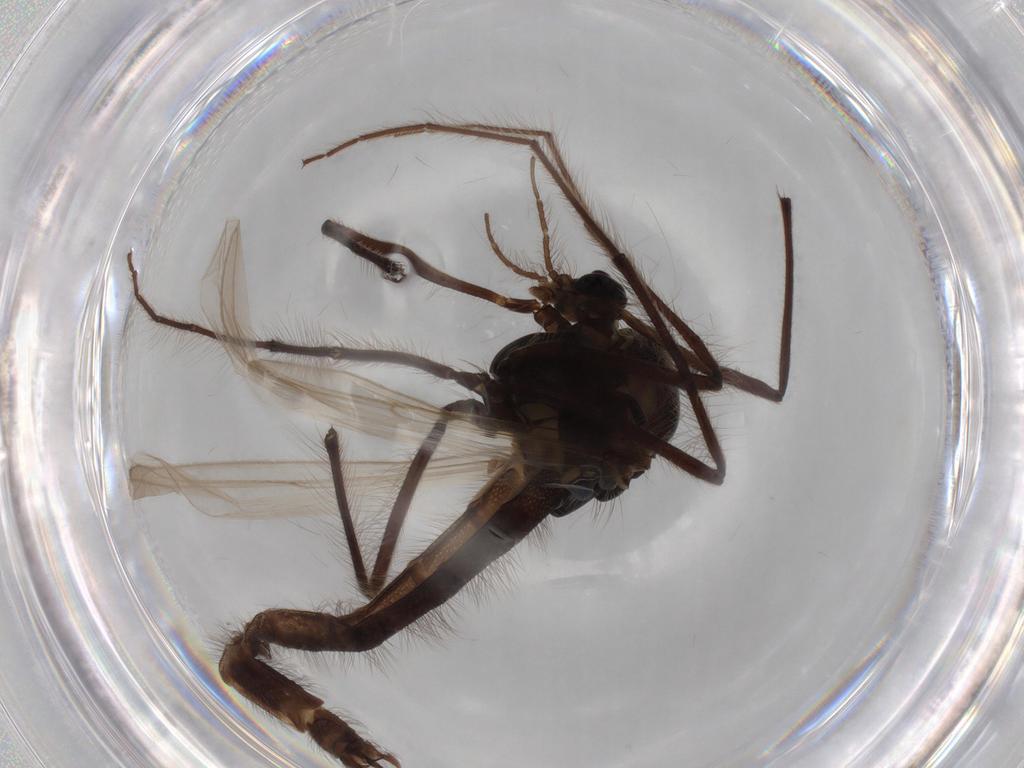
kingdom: Animalia
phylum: Arthropoda
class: Insecta
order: Diptera
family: Chironomidae
